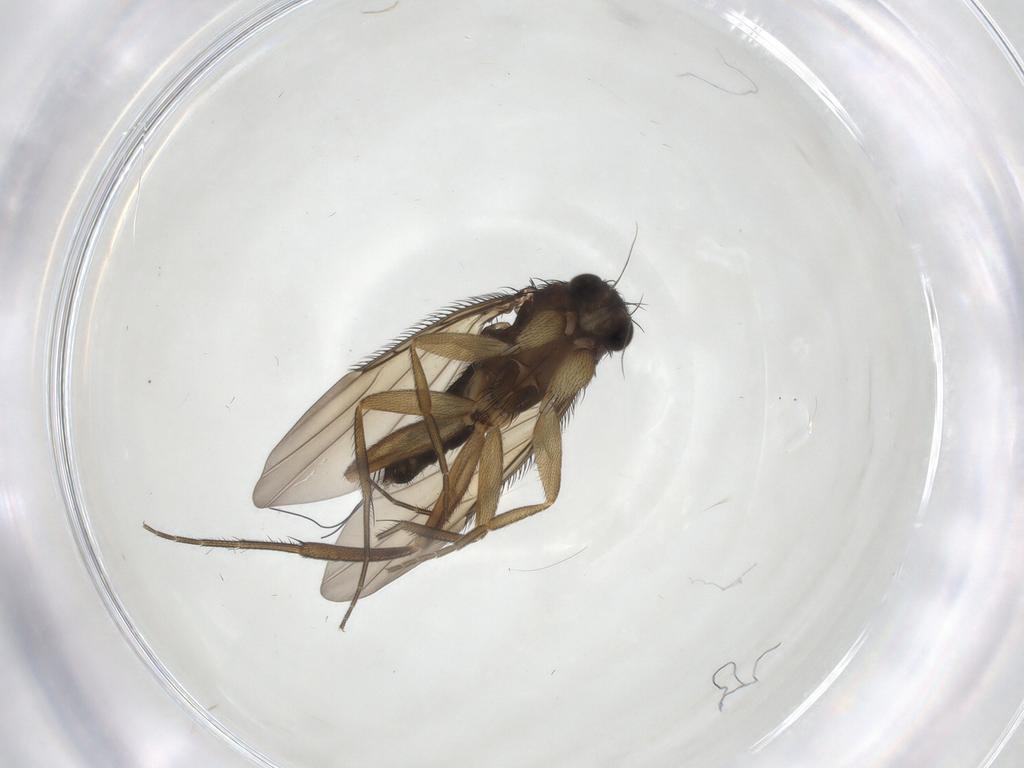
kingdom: Animalia
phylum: Arthropoda
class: Insecta
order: Diptera
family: Phoridae
